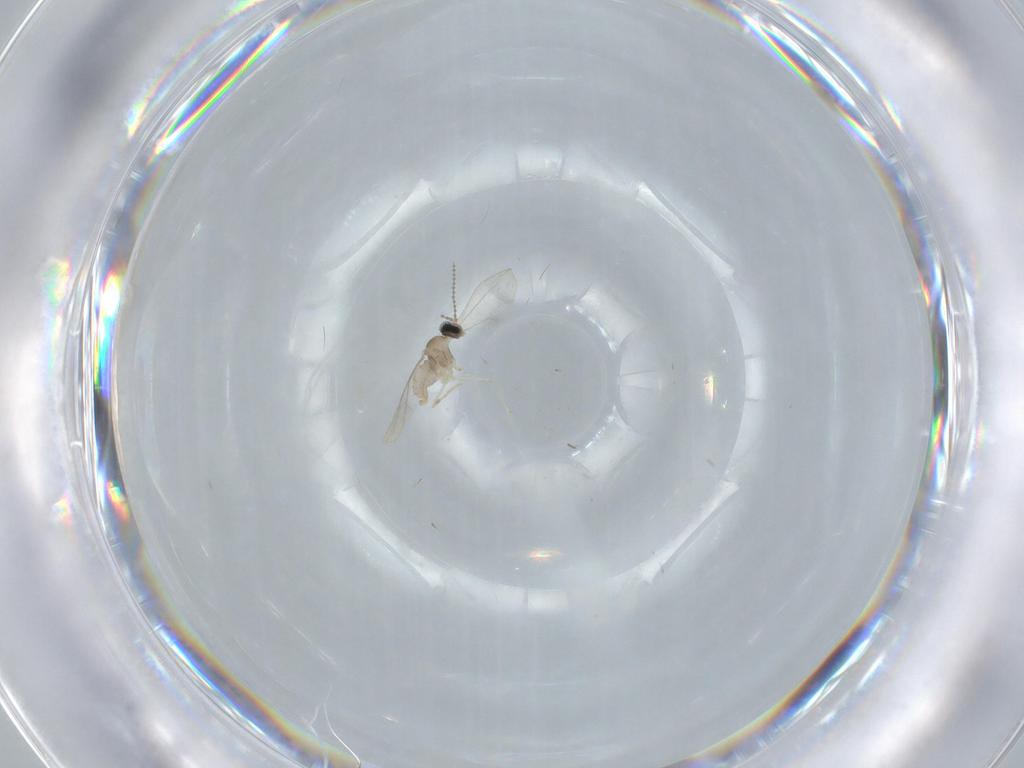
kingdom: Animalia
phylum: Arthropoda
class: Insecta
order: Diptera
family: Cecidomyiidae
